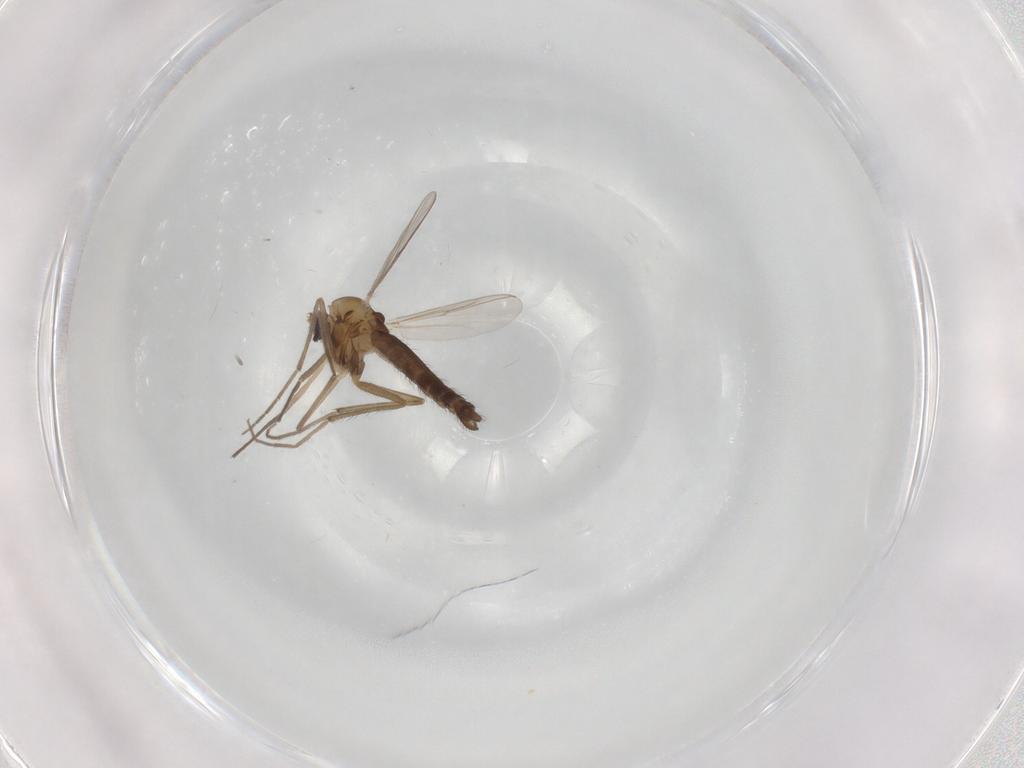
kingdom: Animalia
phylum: Arthropoda
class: Insecta
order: Diptera
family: Chironomidae
